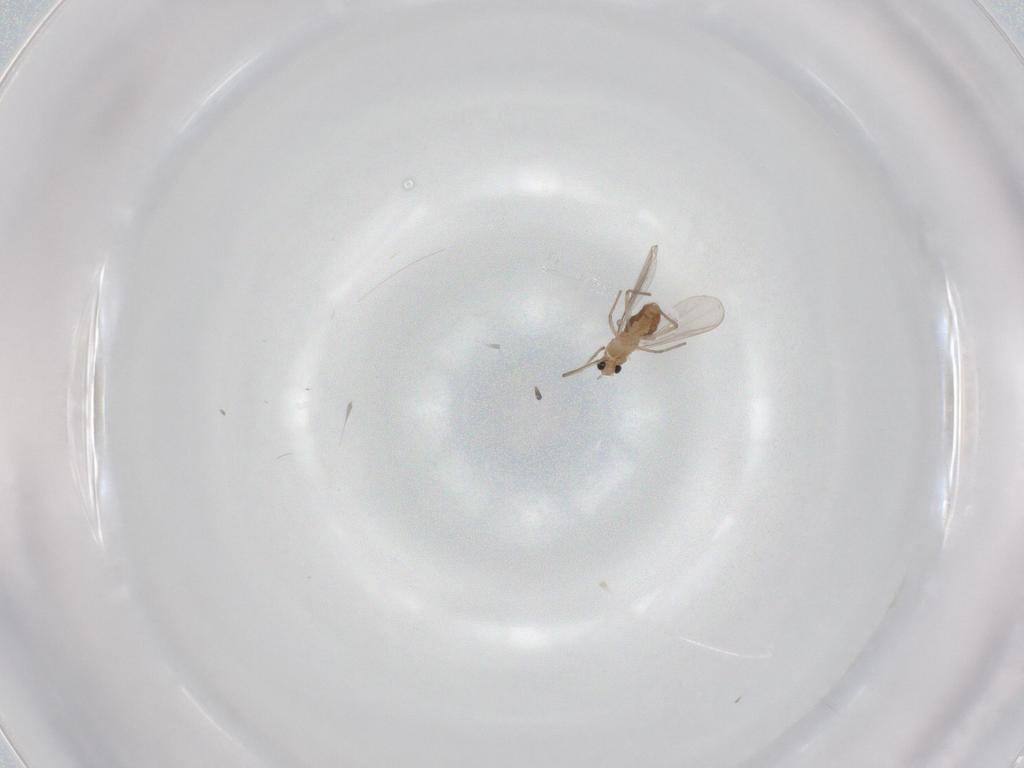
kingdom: Animalia
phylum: Arthropoda
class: Insecta
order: Diptera
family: Chironomidae
